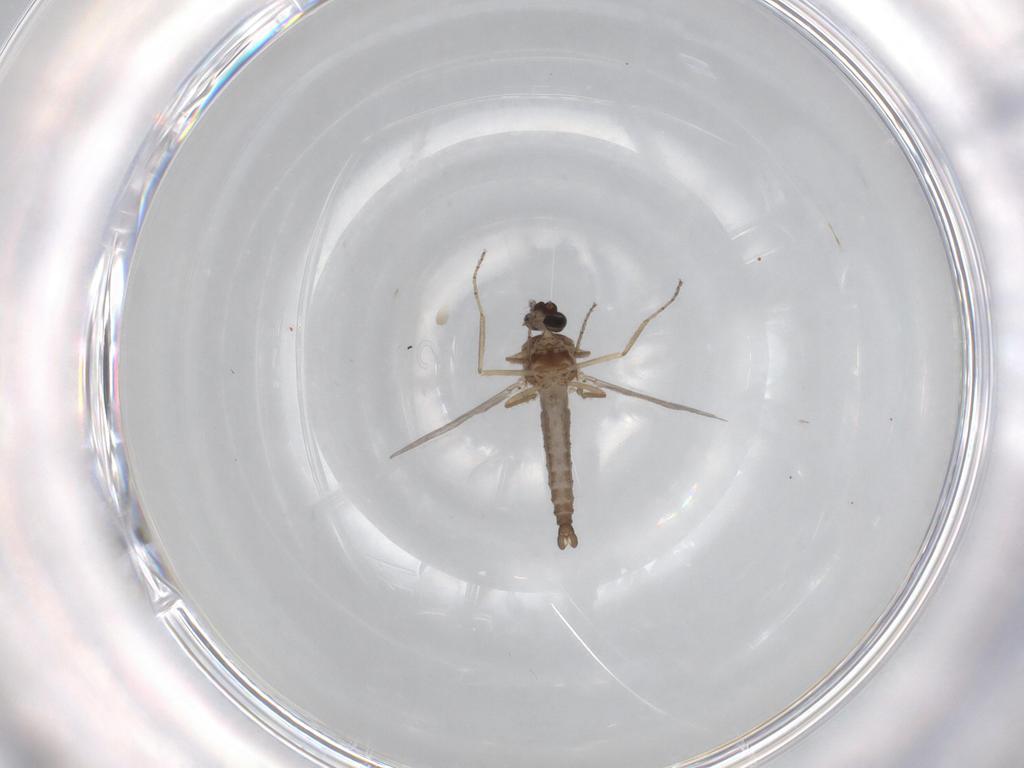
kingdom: Animalia
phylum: Arthropoda
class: Insecta
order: Diptera
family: Ceratopogonidae
